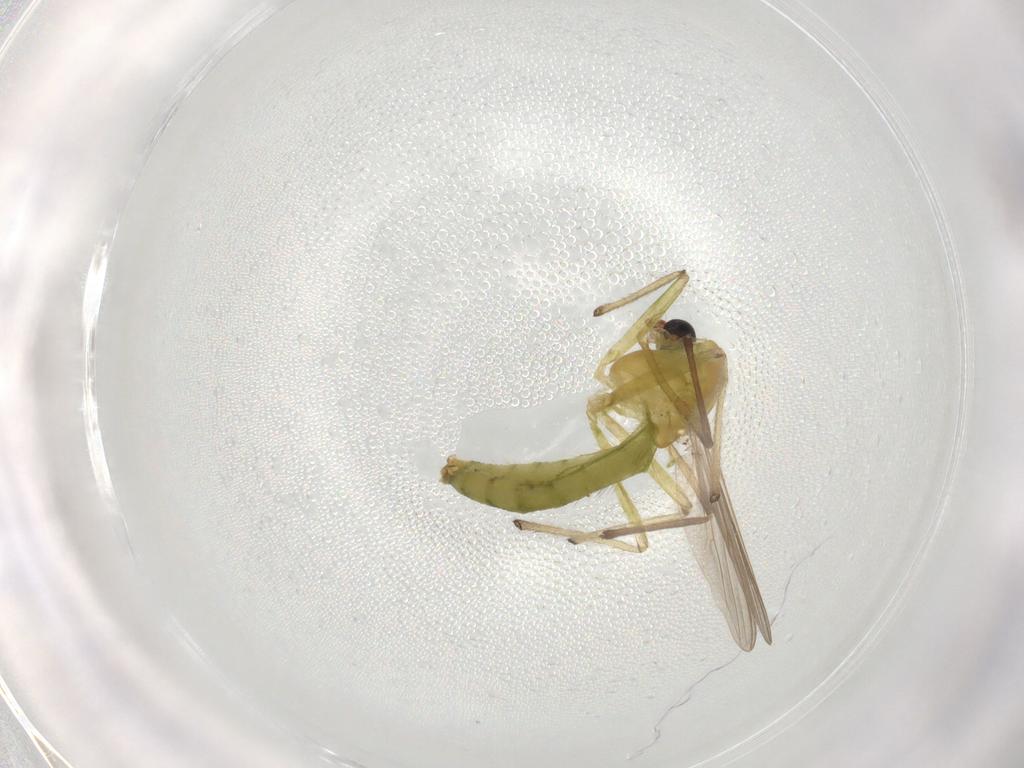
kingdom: Animalia
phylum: Arthropoda
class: Insecta
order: Diptera
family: Chironomidae
